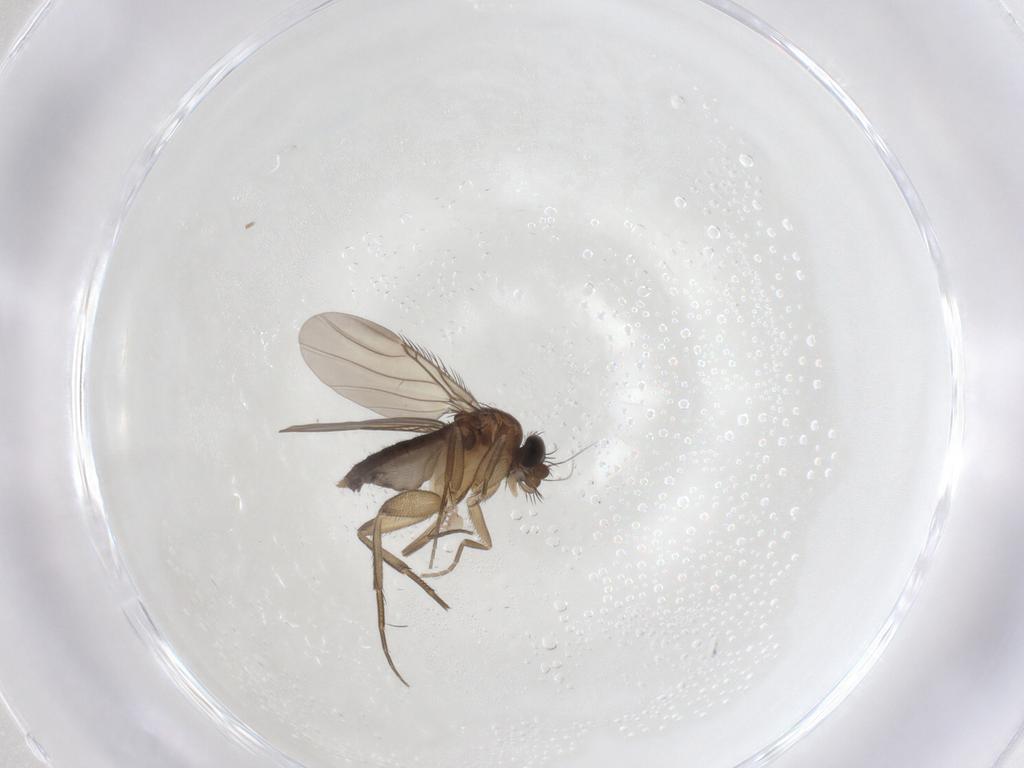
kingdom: Animalia
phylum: Arthropoda
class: Insecta
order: Diptera
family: Phoridae
